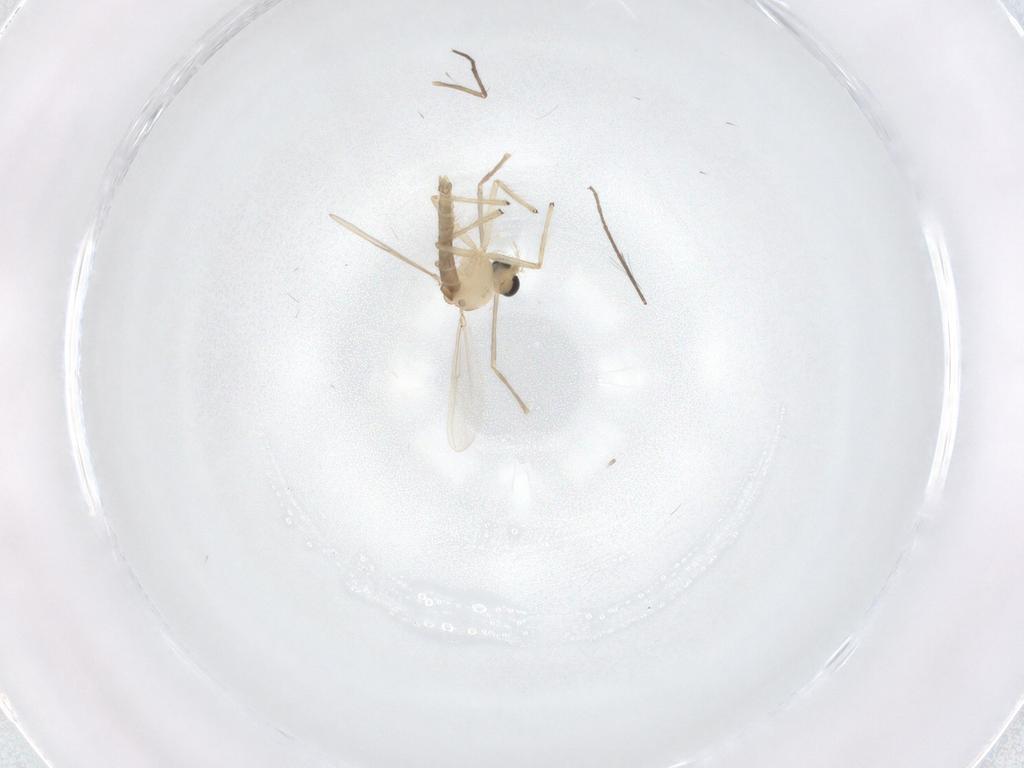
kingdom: Animalia
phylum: Arthropoda
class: Insecta
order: Diptera
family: Chironomidae
